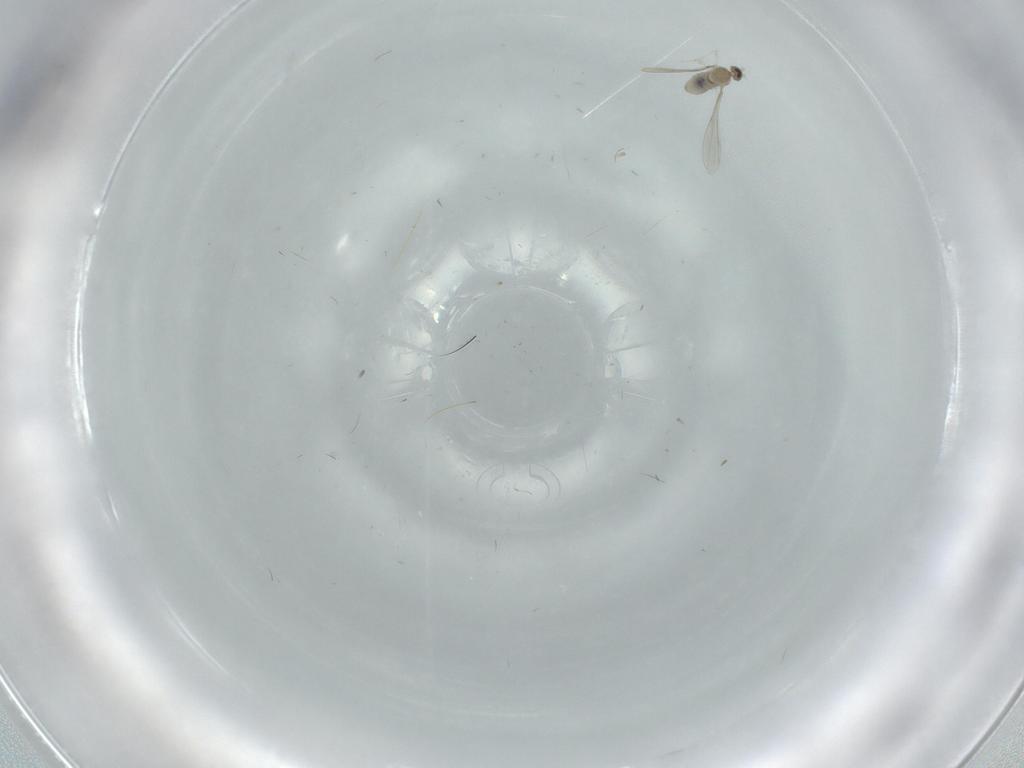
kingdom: Animalia
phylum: Arthropoda
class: Insecta
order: Diptera
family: Cecidomyiidae
